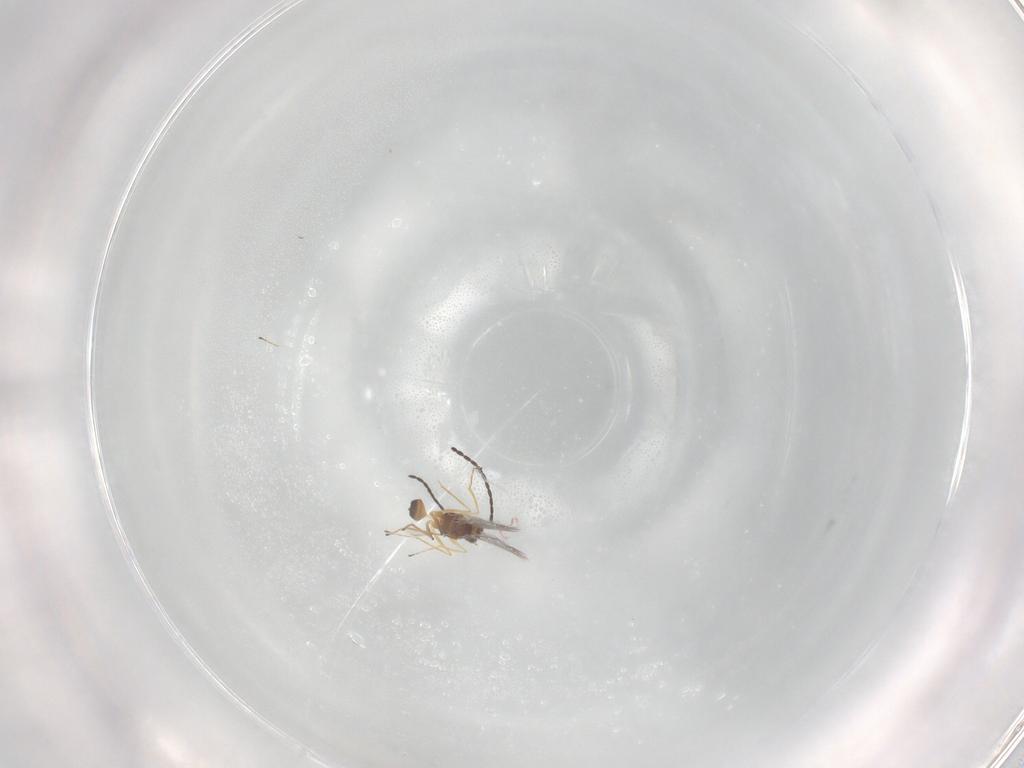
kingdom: Animalia
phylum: Arthropoda
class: Insecta
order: Hymenoptera
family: Mymaridae
